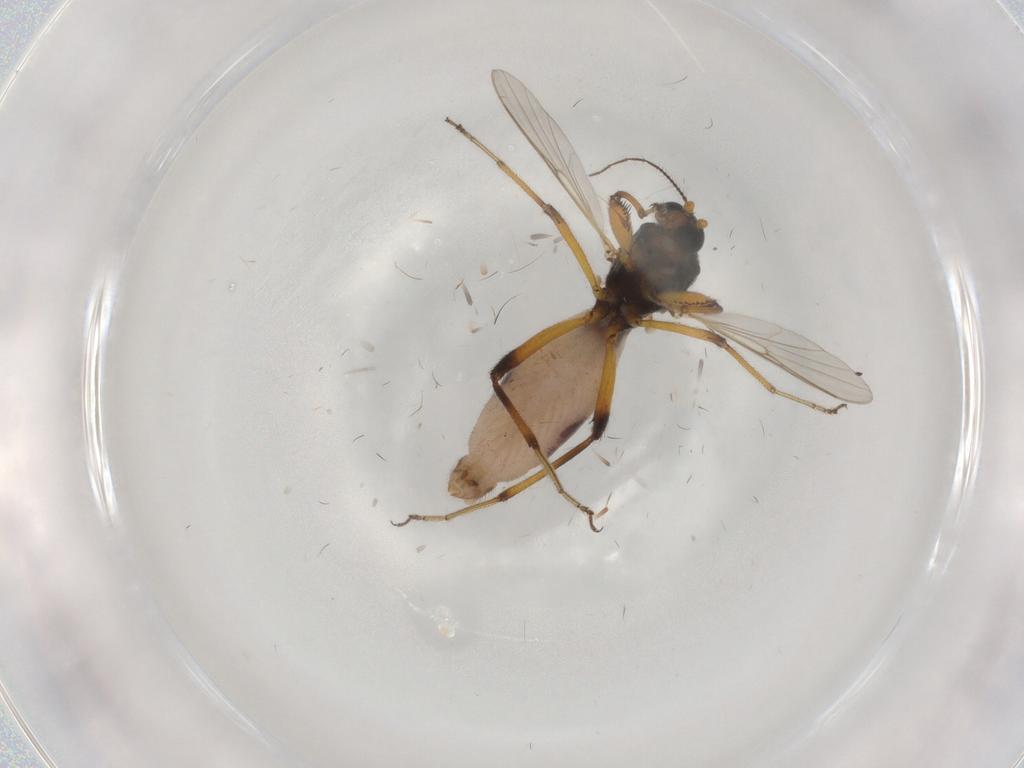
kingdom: Animalia
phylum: Arthropoda
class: Insecta
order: Diptera
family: Ceratopogonidae
